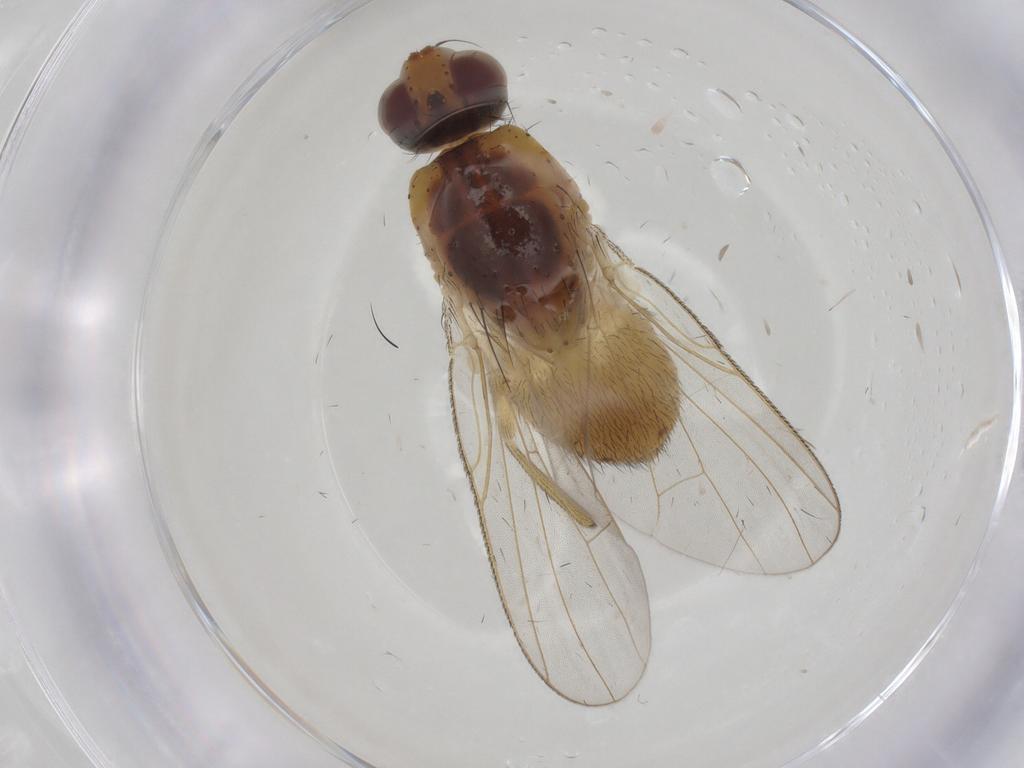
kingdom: Animalia
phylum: Arthropoda
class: Insecta
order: Diptera
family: Muscidae
